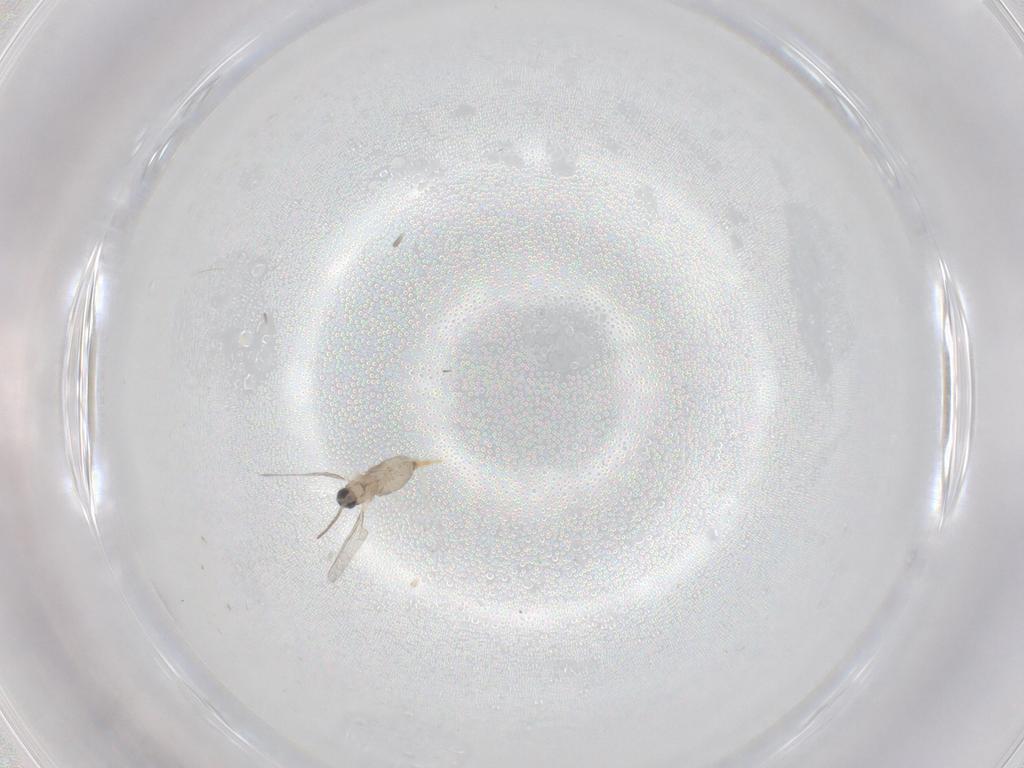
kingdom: Animalia
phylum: Arthropoda
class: Insecta
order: Diptera
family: Cecidomyiidae
